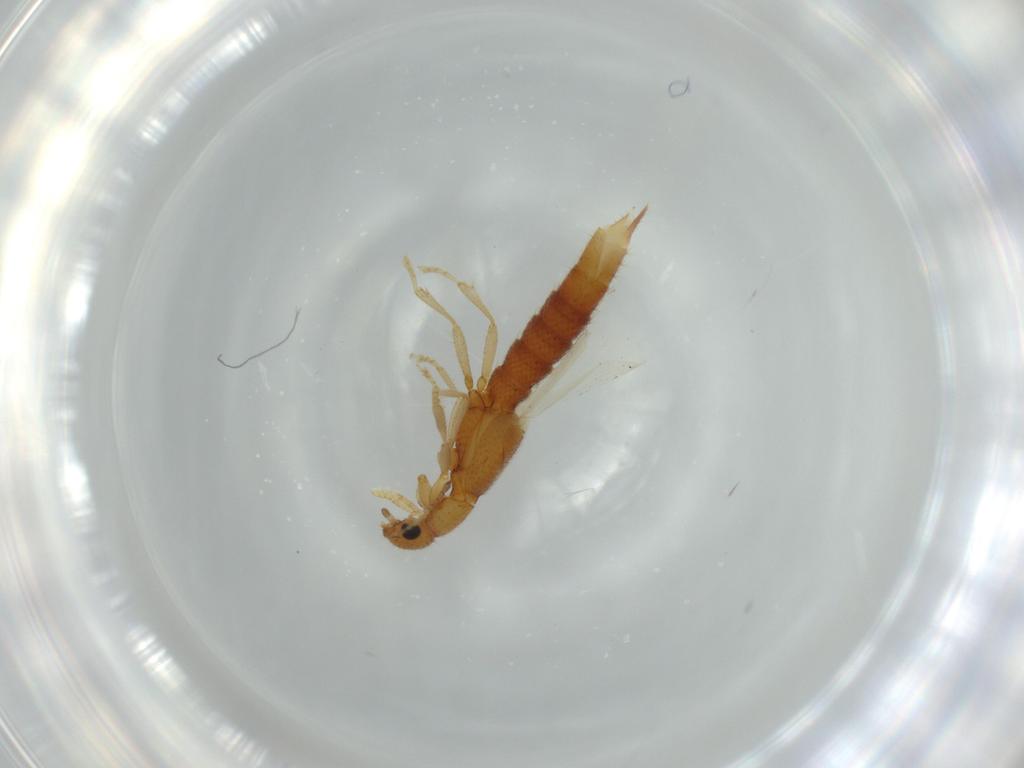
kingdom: Animalia
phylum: Arthropoda
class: Insecta
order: Coleoptera
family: Staphylinidae
